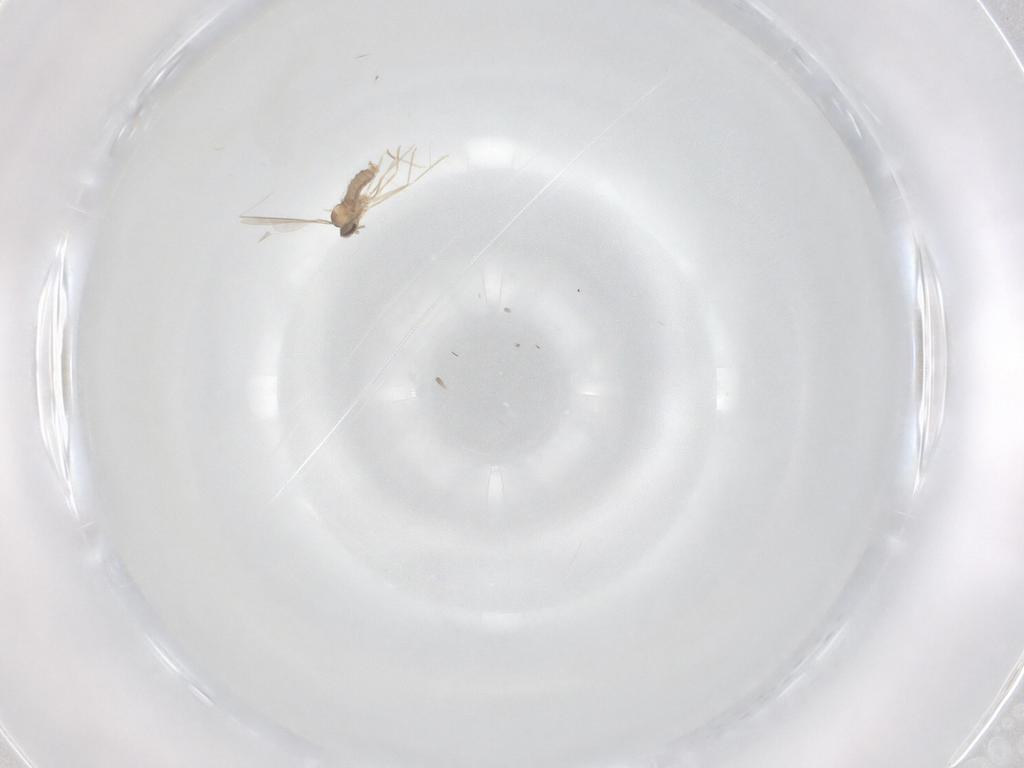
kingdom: Animalia
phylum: Arthropoda
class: Insecta
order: Diptera
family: Cecidomyiidae
